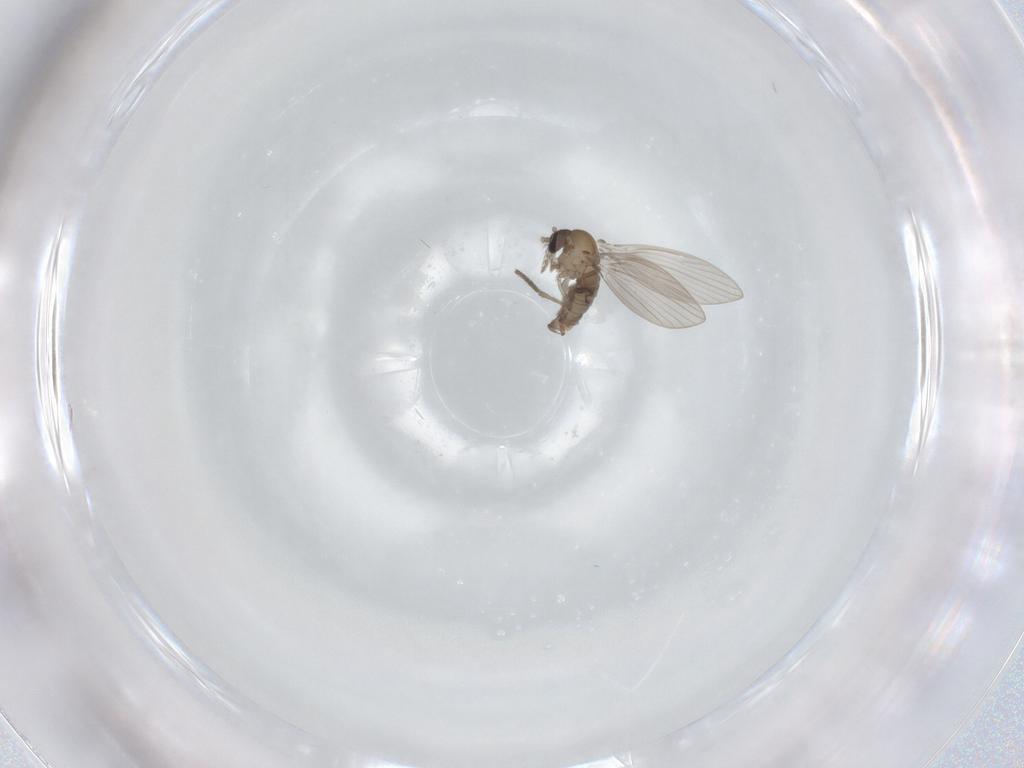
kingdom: Animalia
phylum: Arthropoda
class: Insecta
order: Diptera
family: Psychodidae
